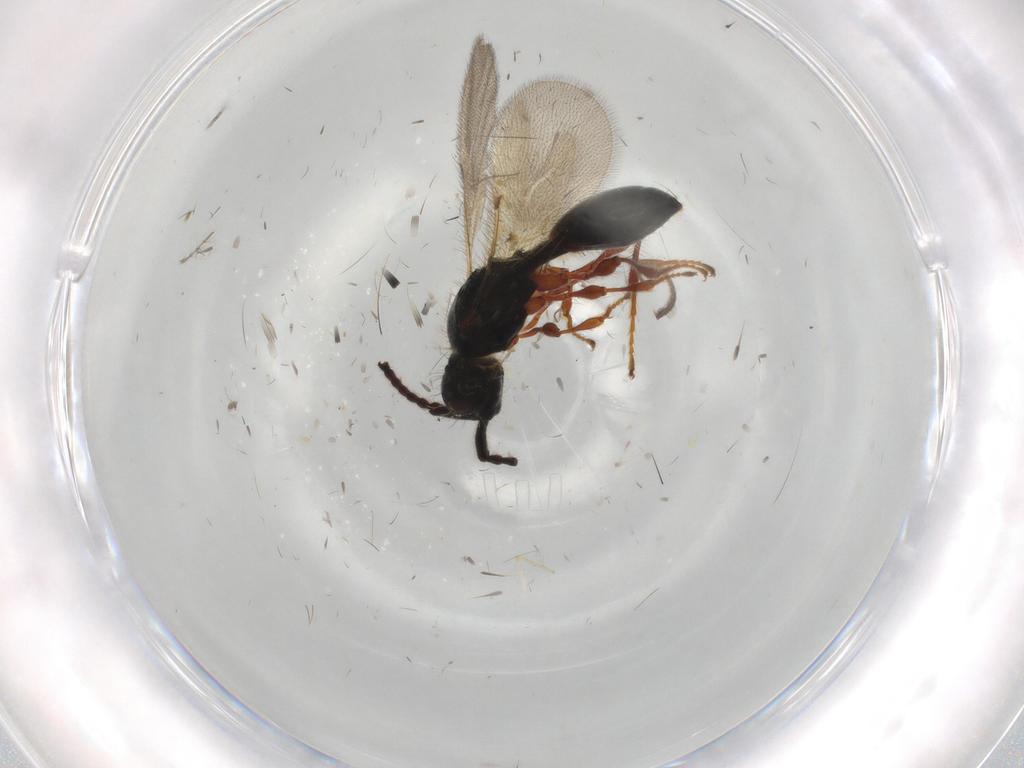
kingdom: Animalia
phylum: Arthropoda
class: Insecta
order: Hymenoptera
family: Diapriidae
